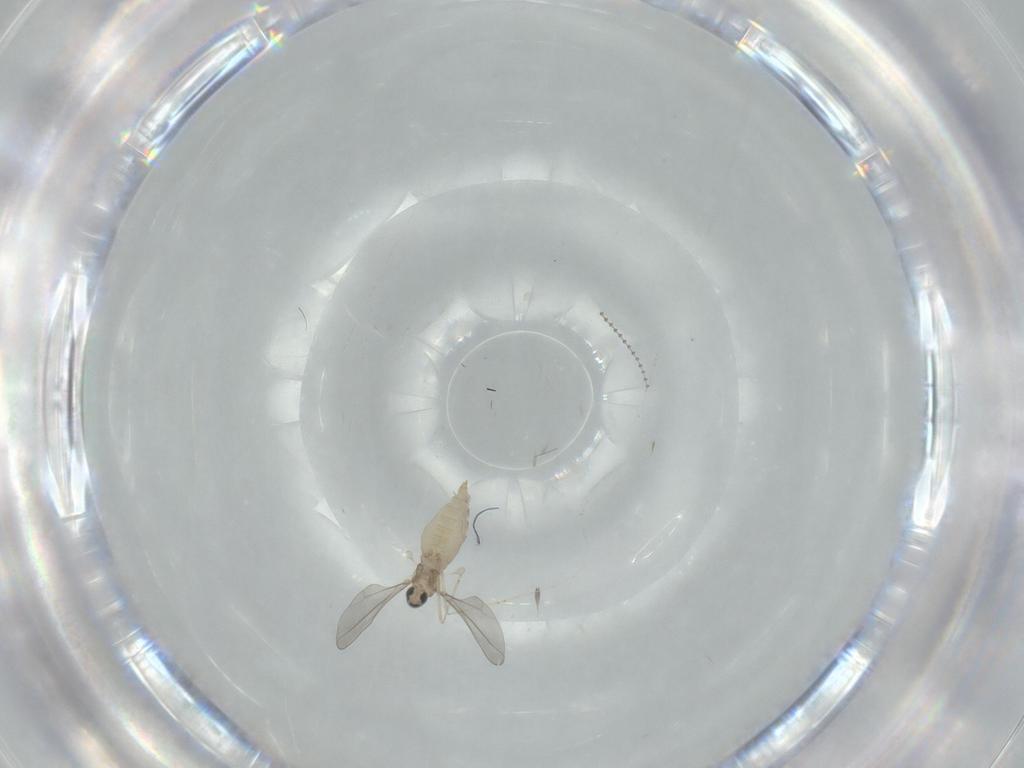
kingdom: Animalia
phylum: Arthropoda
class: Insecta
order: Diptera
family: Cecidomyiidae
